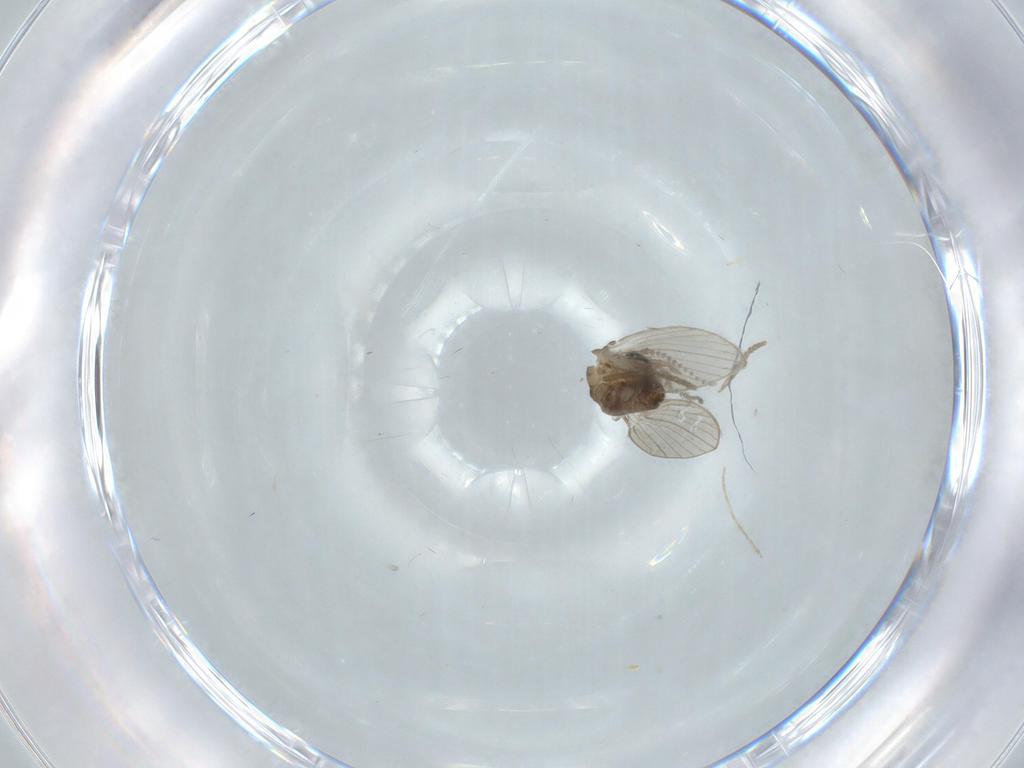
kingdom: Animalia
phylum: Arthropoda
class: Insecta
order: Diptera
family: Psychodidae
